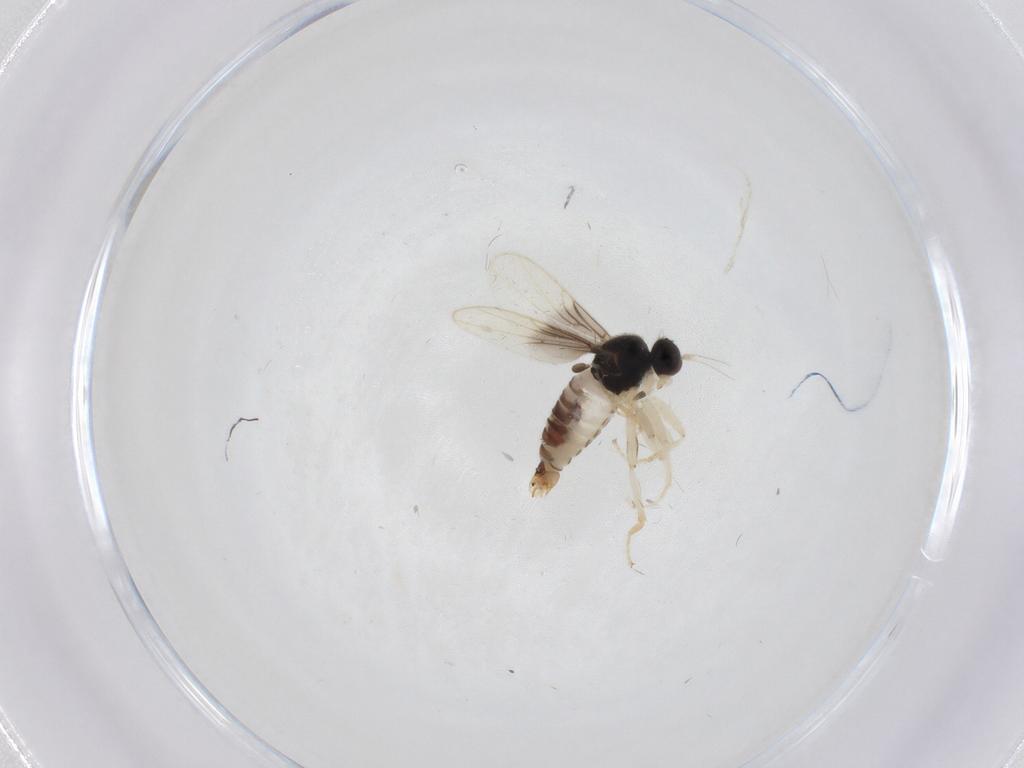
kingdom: Animalia
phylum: Arthropoda
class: Insecta
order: Diptera
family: Hybotidae
